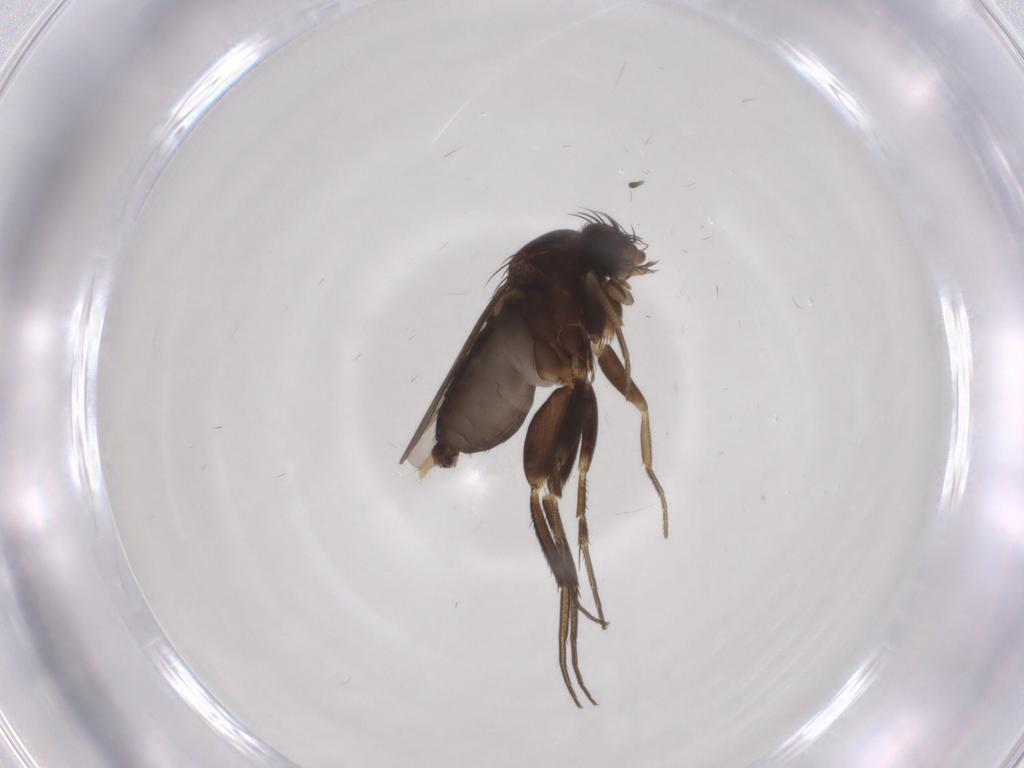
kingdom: Animalia
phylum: Arthropoda
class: Insecta
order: Diptera
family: Phoridae
